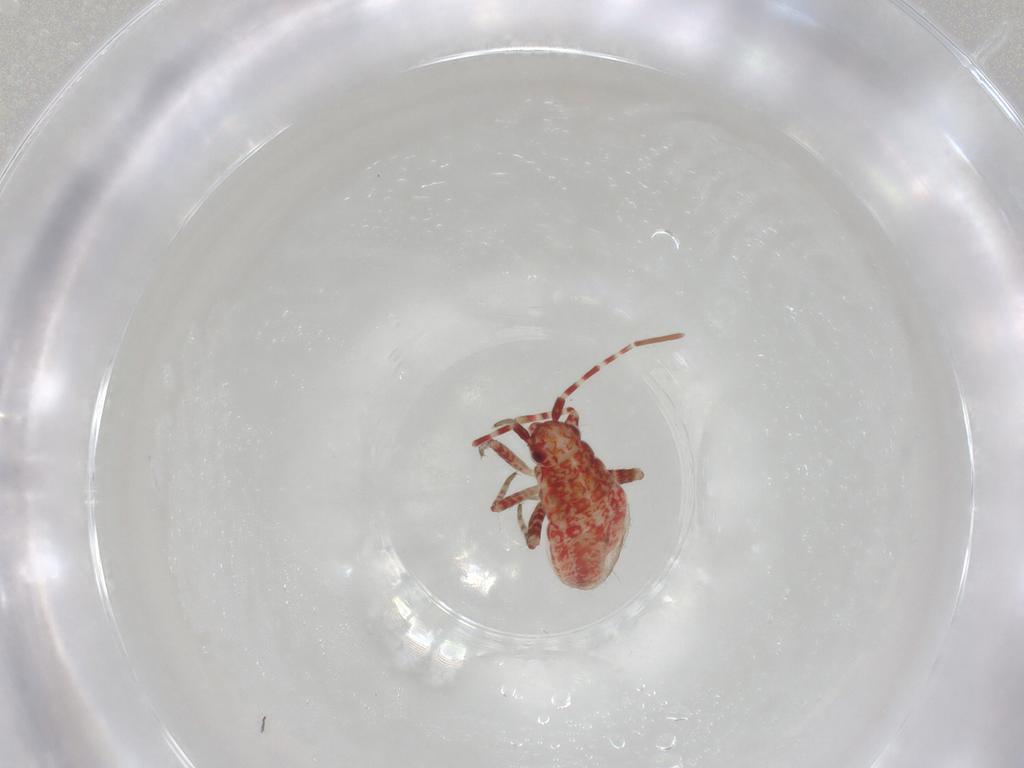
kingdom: Animalia
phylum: Arthropoda
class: Insecta
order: Hemiptera
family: Miridae
